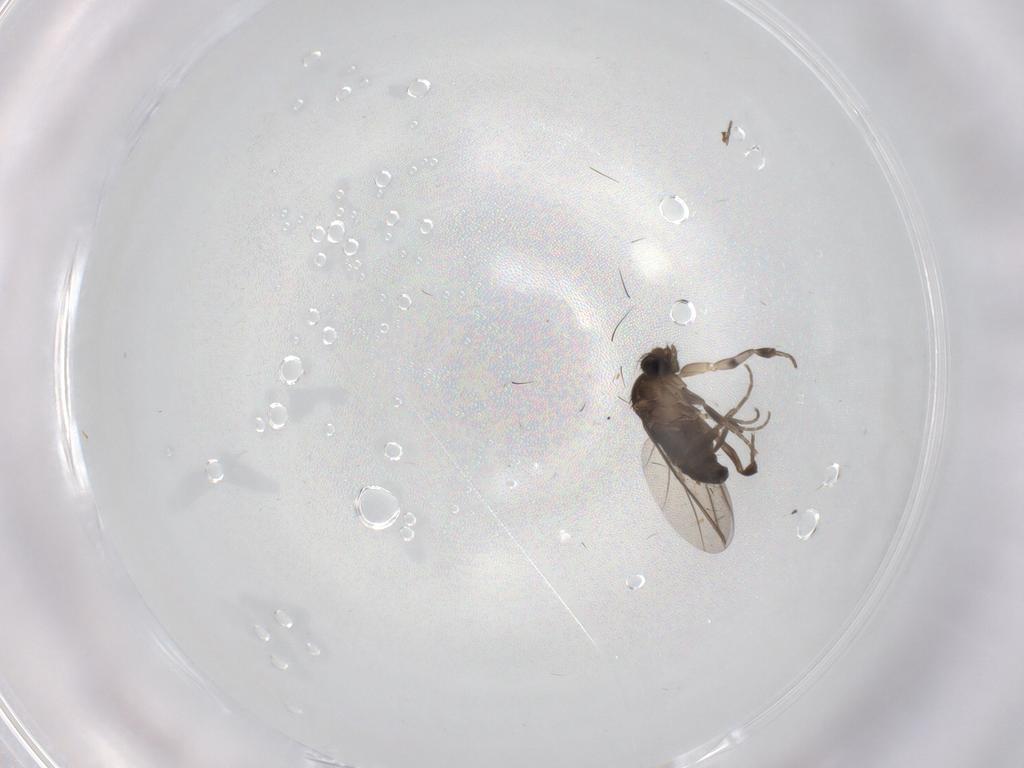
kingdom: Animalia
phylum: Arthropoda
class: Insecta
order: Diptera
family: Phoridae
